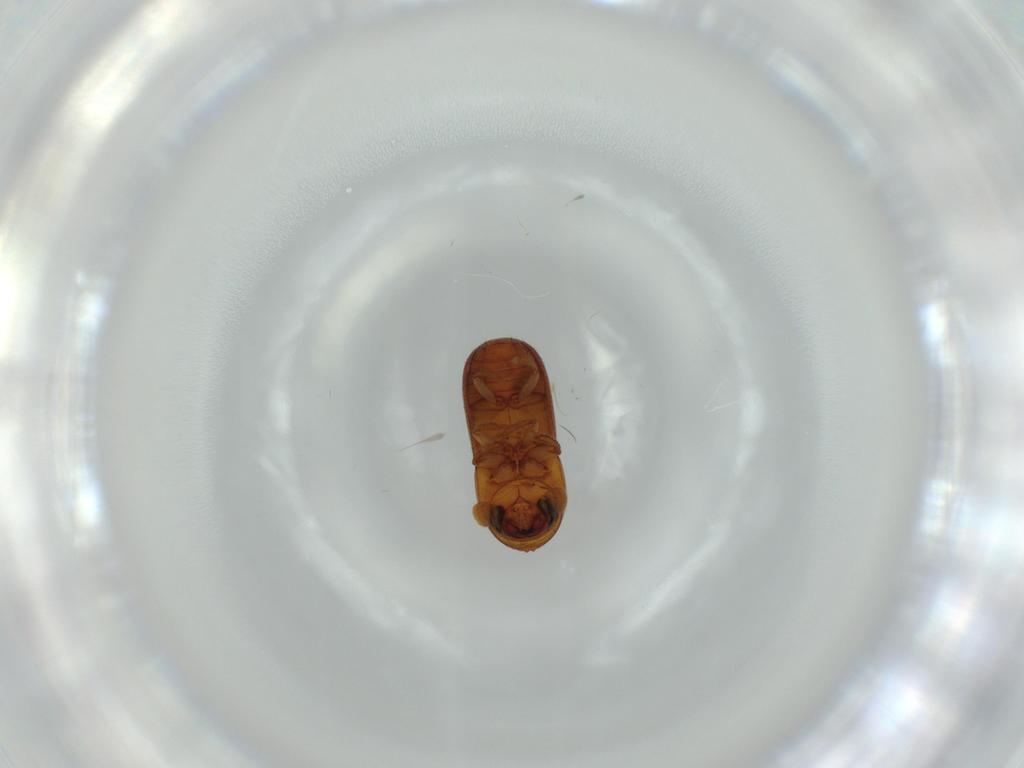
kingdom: Animalia
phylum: Arthropoda
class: Insecta
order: Coleoptera
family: Curculionidae
